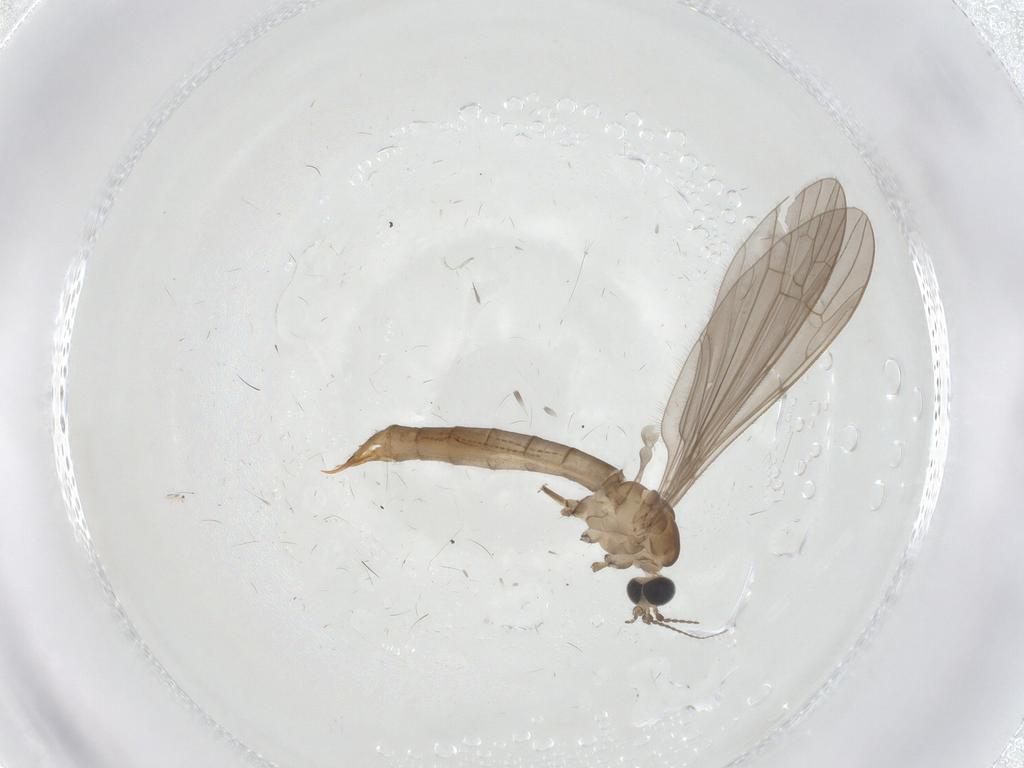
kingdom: Animalia
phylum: Arthropoda
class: Insecta
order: Diptera
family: Limoniidae
